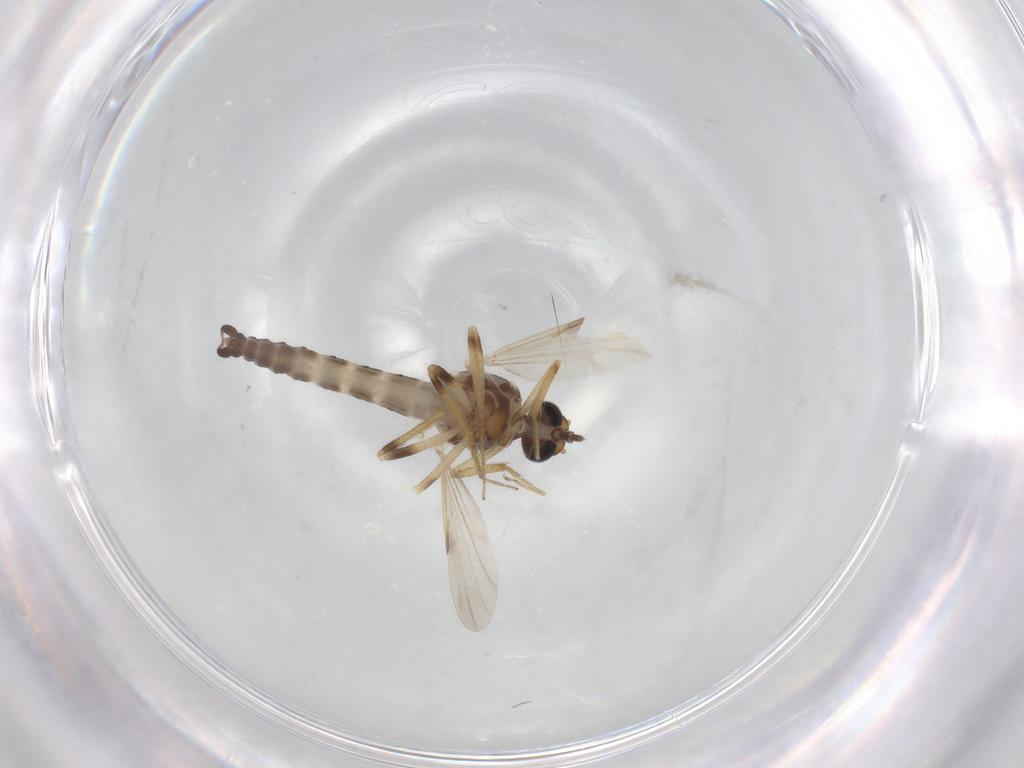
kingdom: Animalia
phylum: Arthropoda
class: Insecta
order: Diptera
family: Ceratopogonidae
